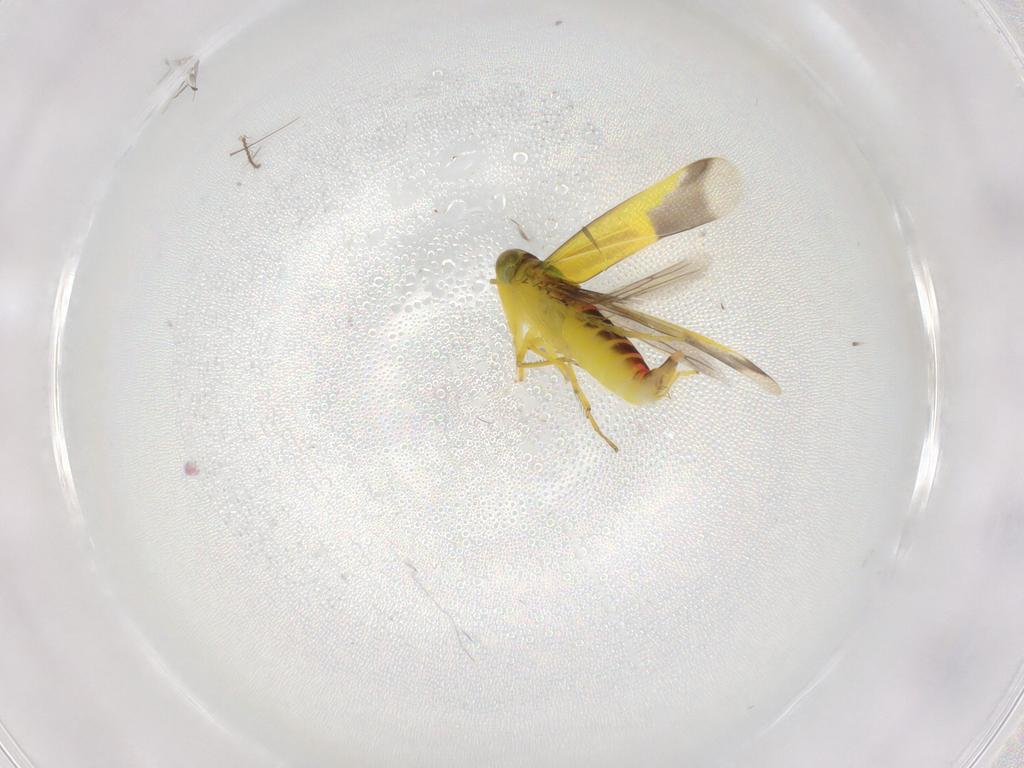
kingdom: Animalia
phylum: Arthropoda
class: Insecta
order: Hemiptera
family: Cicadellidae
